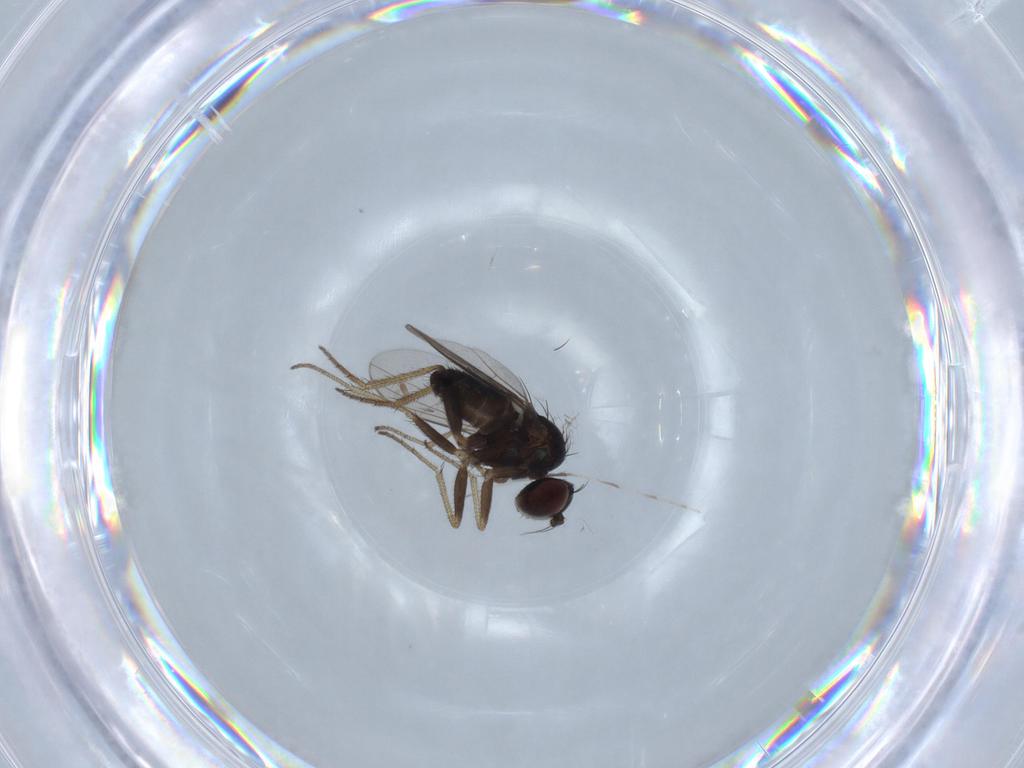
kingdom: Animalia
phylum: Arthropoda
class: Insecta
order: Diptera
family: Dolichopodidae
